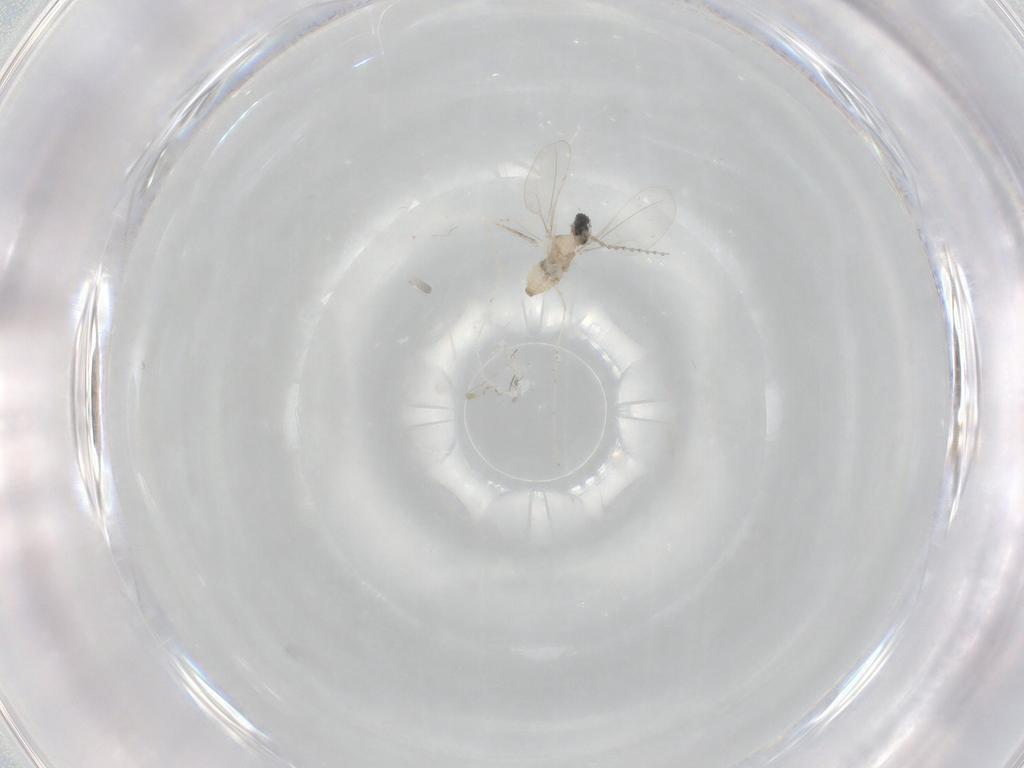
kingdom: Animalia
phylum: Arthropoda
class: Insecta
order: Diptera
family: Cecidomyiidae
